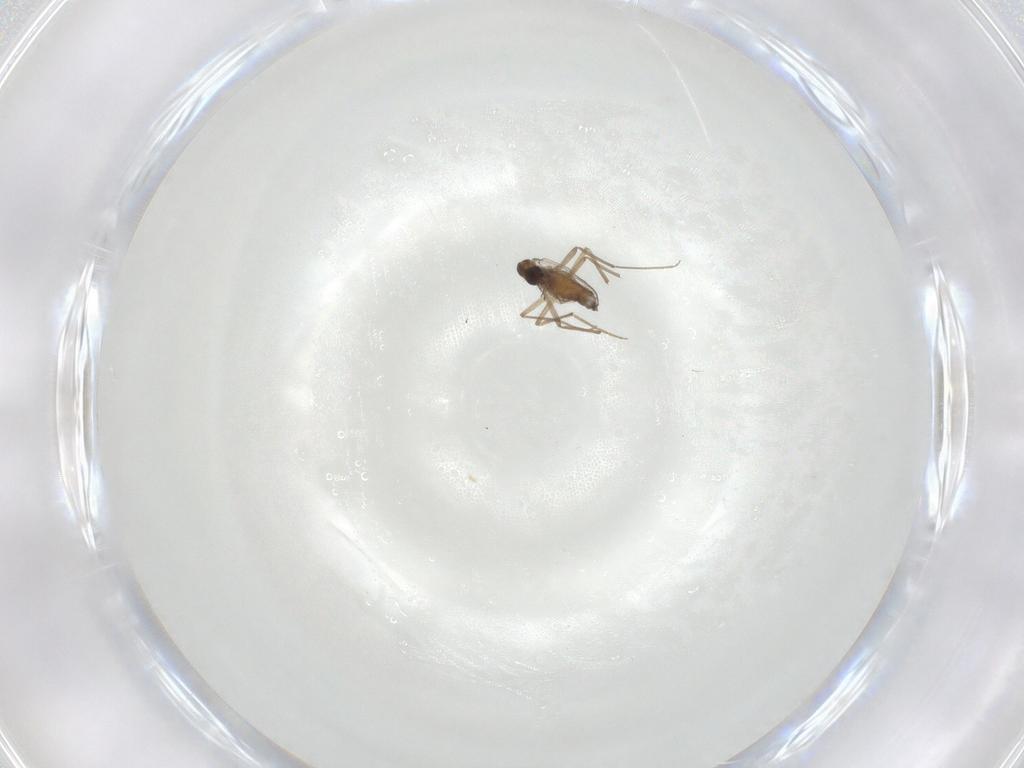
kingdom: Animalia
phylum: Arthropoda
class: Insecta
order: Diptera
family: Chironomidae
